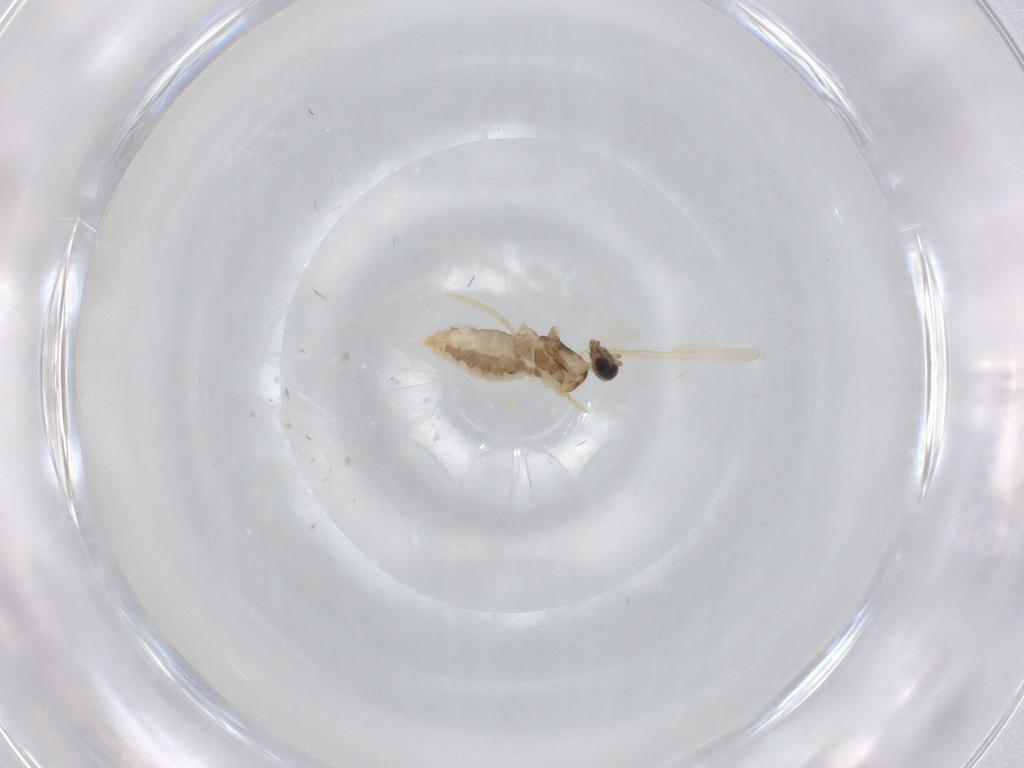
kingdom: Animalia
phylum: Arthropoda
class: Insecta
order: Diptera
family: Cecidomyiidae
